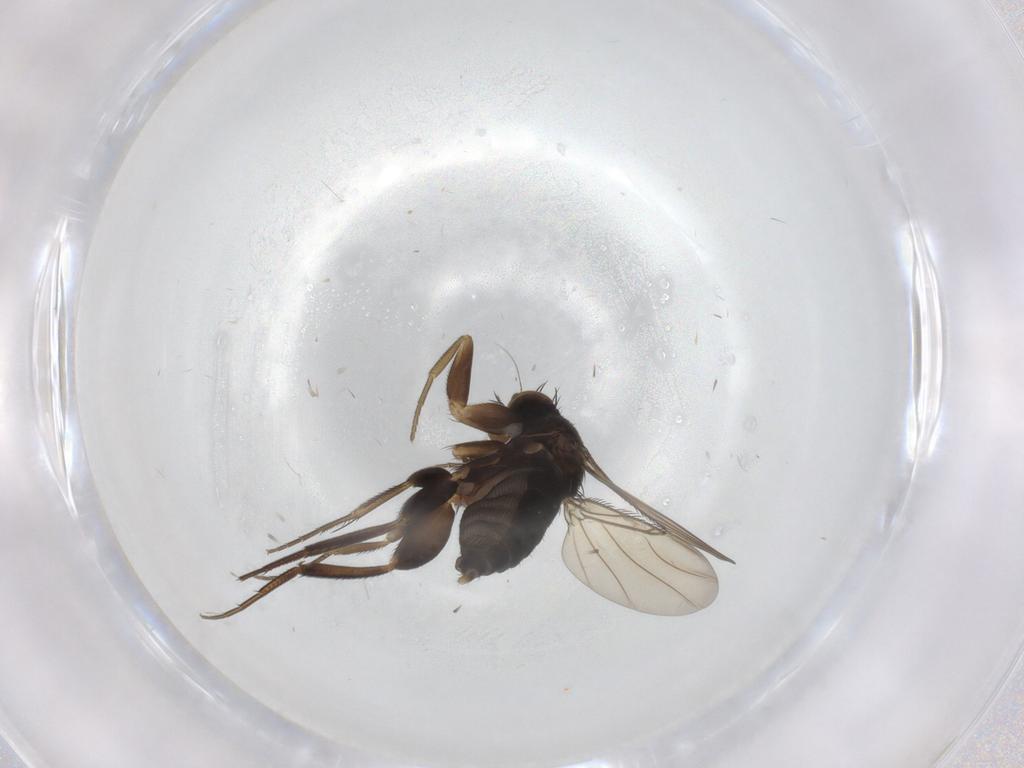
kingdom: Animalia
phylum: Arthropoda
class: Insecta
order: Diptera
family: Phoridae
